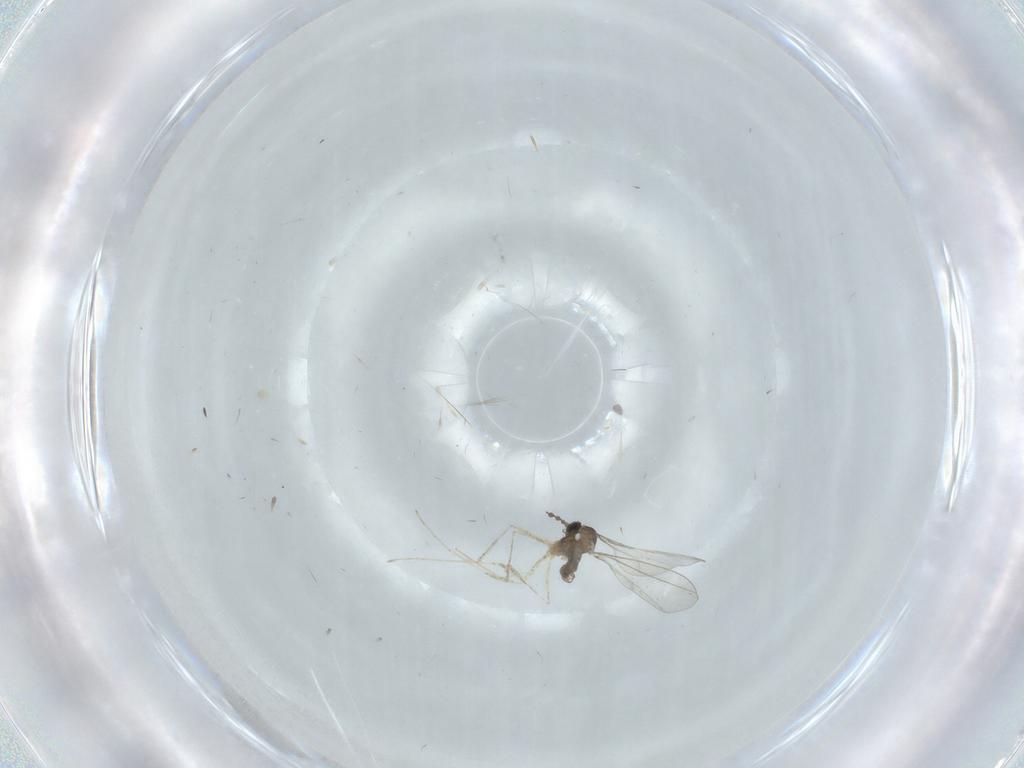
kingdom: Animalia
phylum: Arthropoda
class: Insecta
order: Diptera
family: Cecidomyiidae
